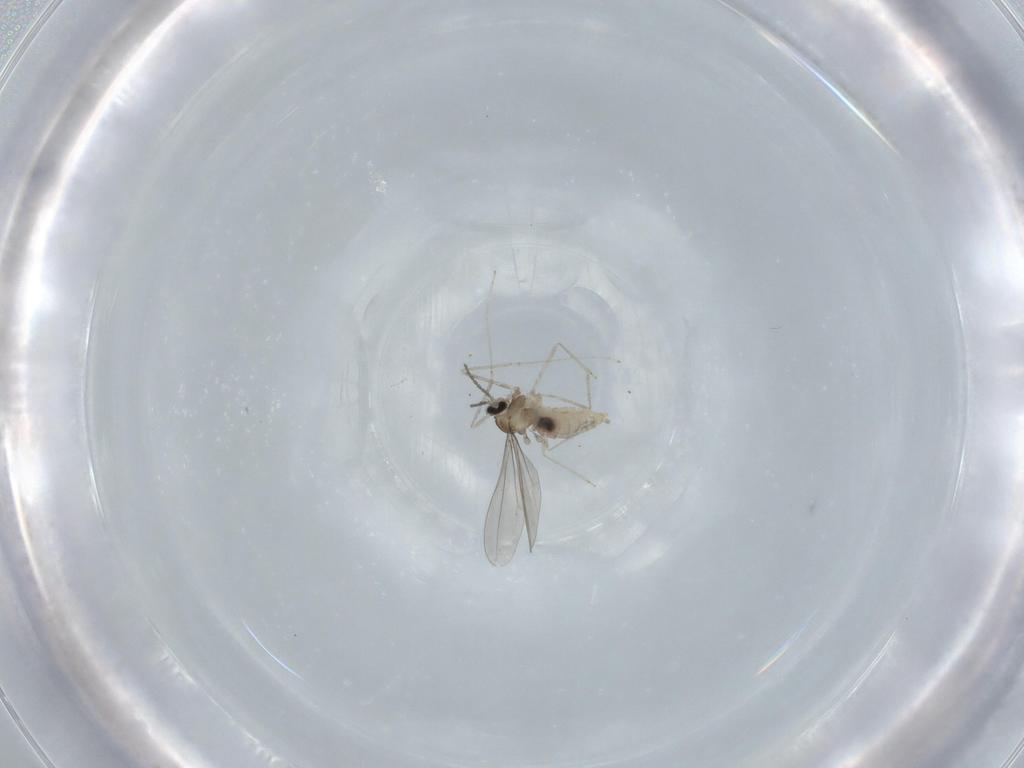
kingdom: Animalia
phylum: Arthropoda
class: Insecta
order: Diptera
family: Cecidomyiidae
